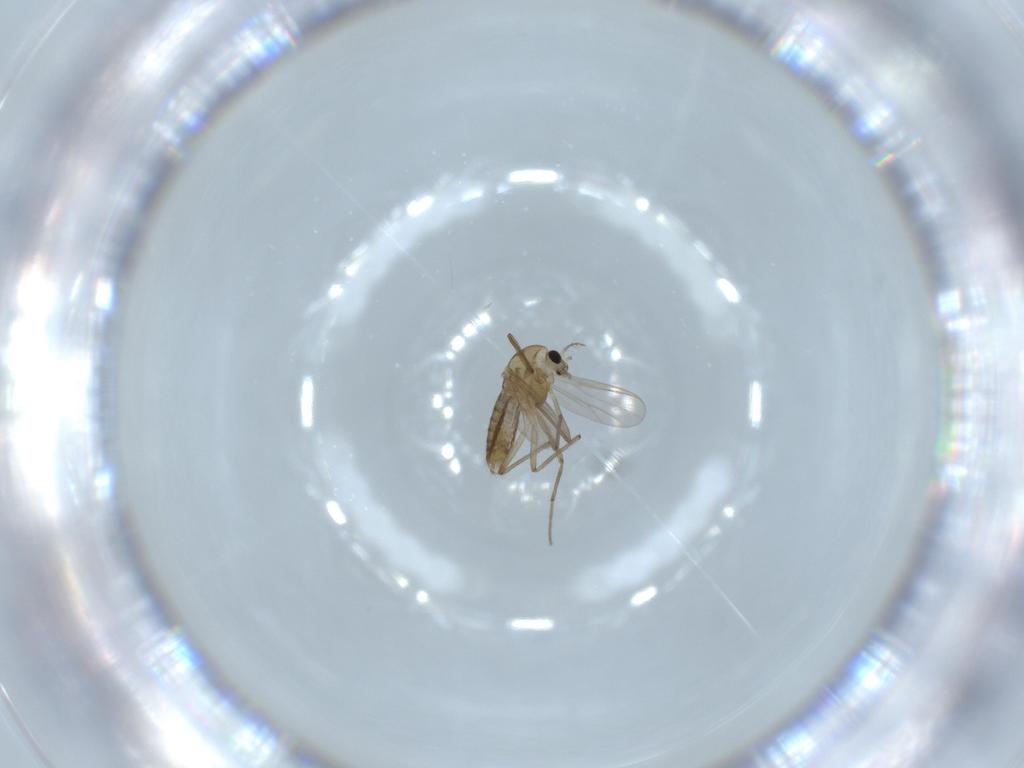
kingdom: Animalia
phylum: Arthropoda
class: Insecta
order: Diptera
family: Chironomidae
